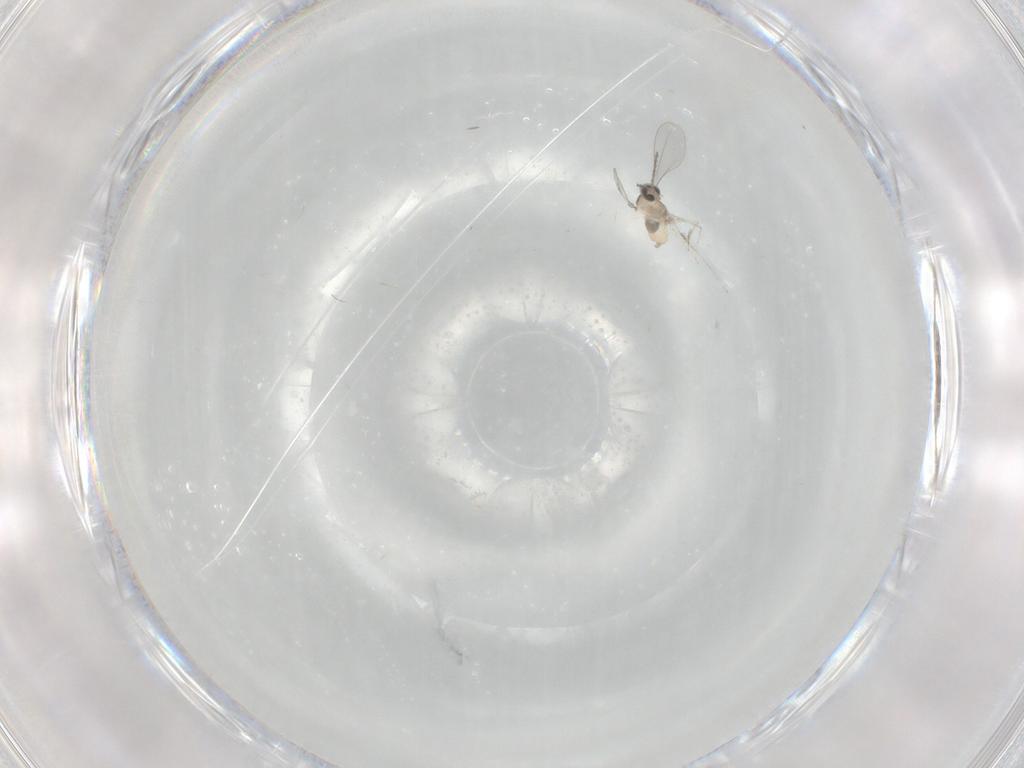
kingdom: Animalia
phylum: Arthropoda
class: Insecta
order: Diptera
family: Cecidomyiidae
